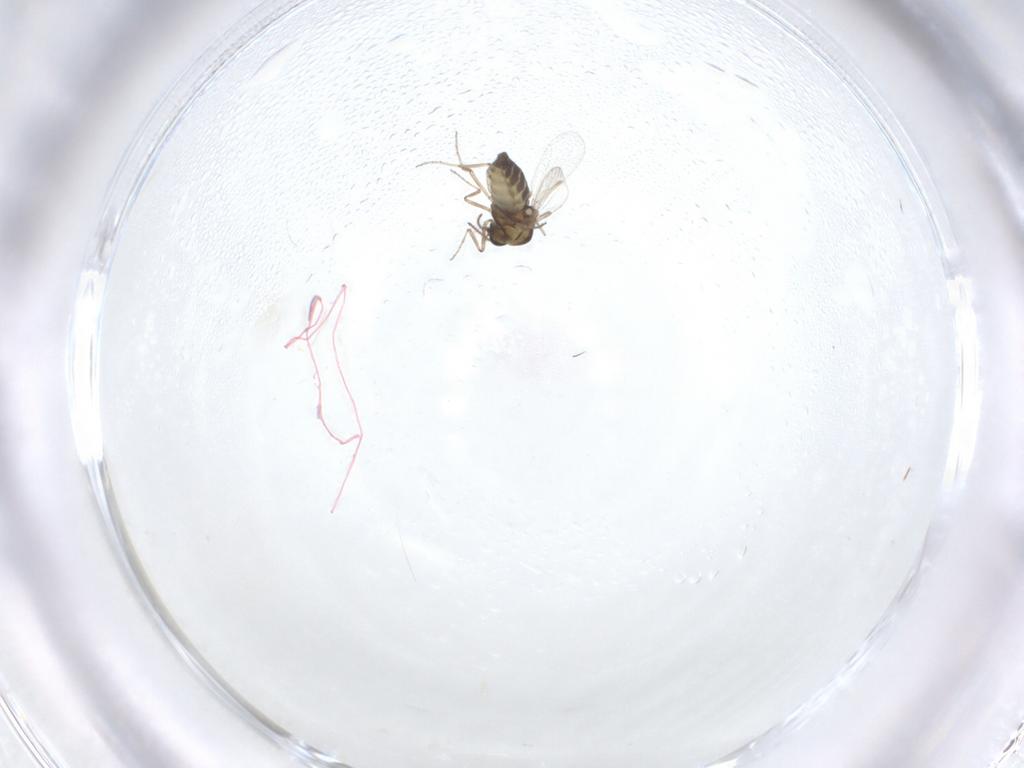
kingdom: Animalia
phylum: Arthropoda
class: Insecta
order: Diptera
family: Ceratopogonidae
